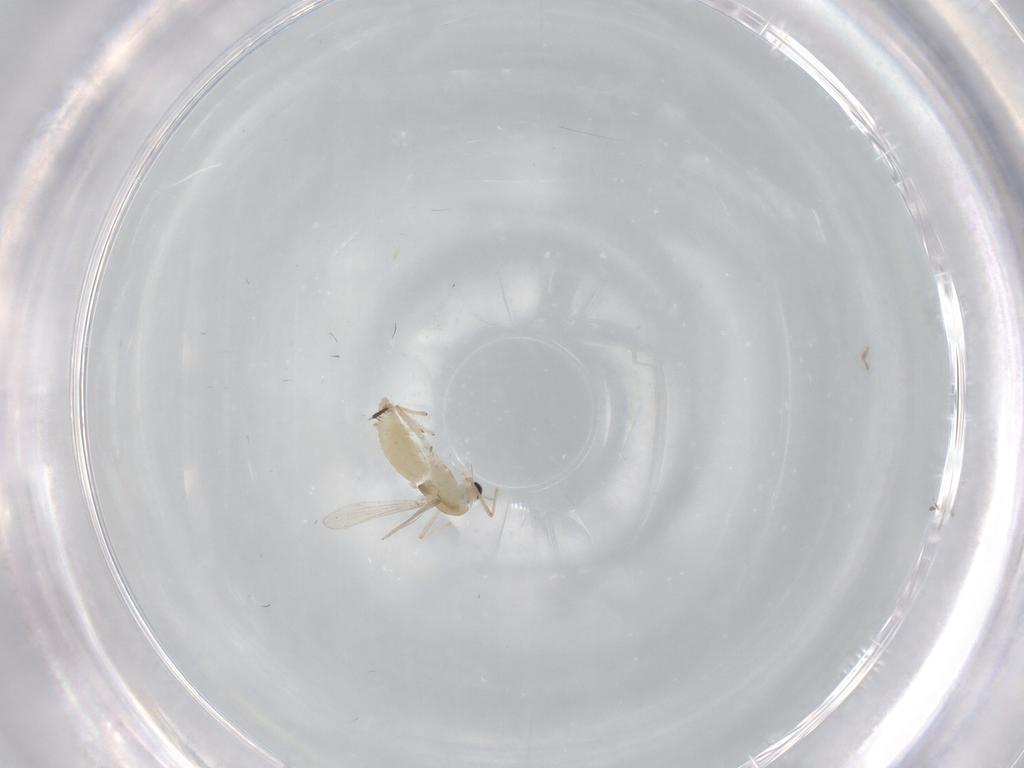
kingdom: Animalia
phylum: Arthropoda
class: Insecta
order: Diptera
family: Chironomidae
